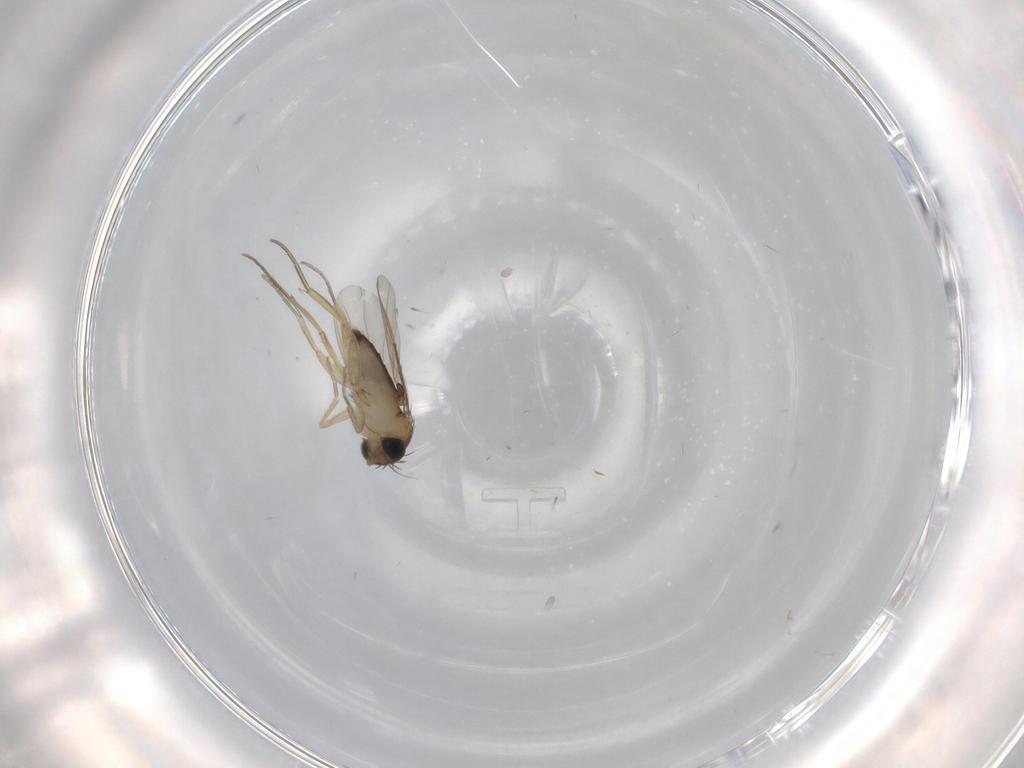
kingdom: Animalia
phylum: Arthropoda
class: Insecta
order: Diptera
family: Phoridae
